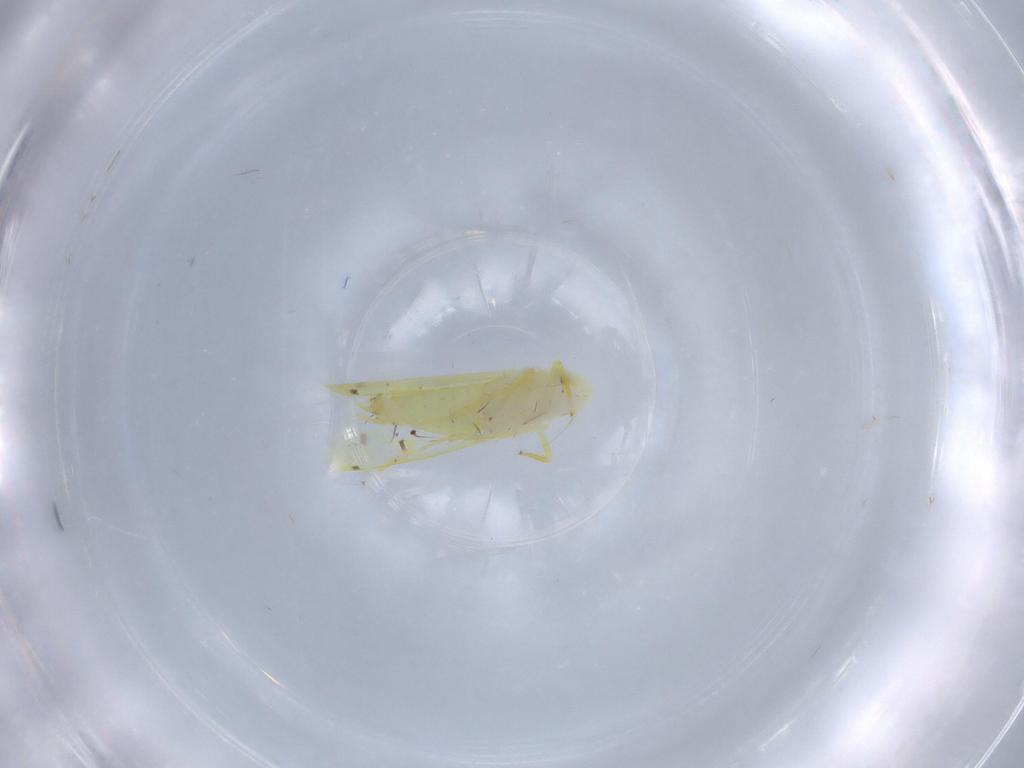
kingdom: Animalia
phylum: Arthropoda
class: Insecta
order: Hemiptera
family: Cicadellidae
